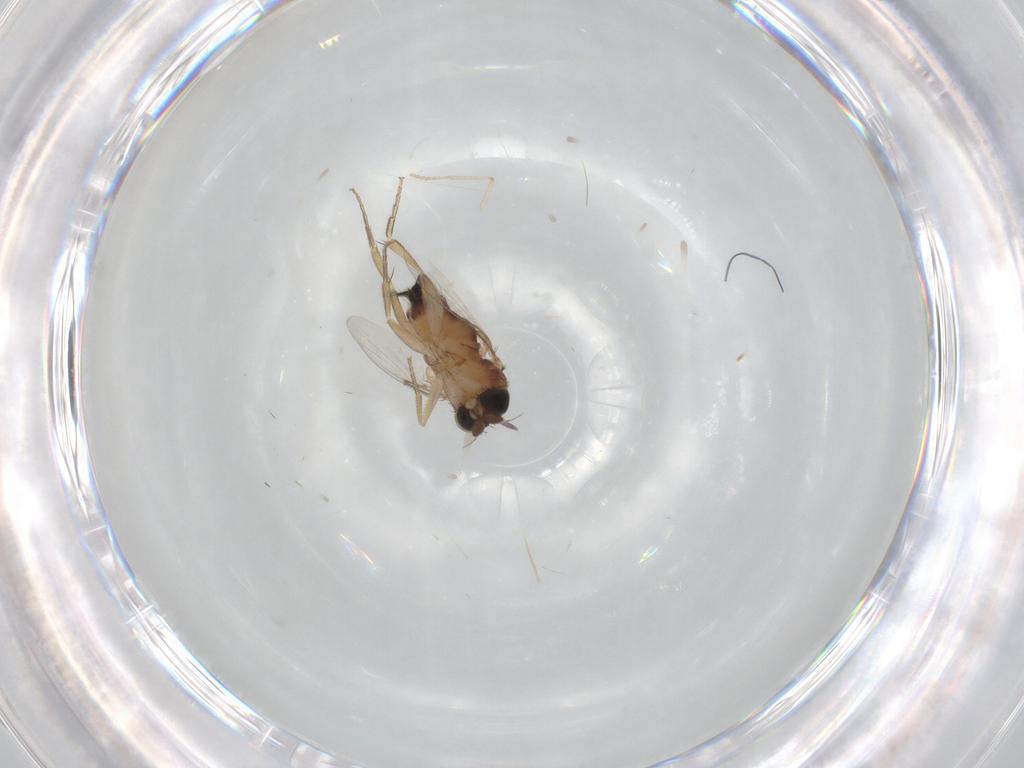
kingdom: Animalia
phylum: Arthropoda
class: Insecta
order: Diptera
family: Phoridae
